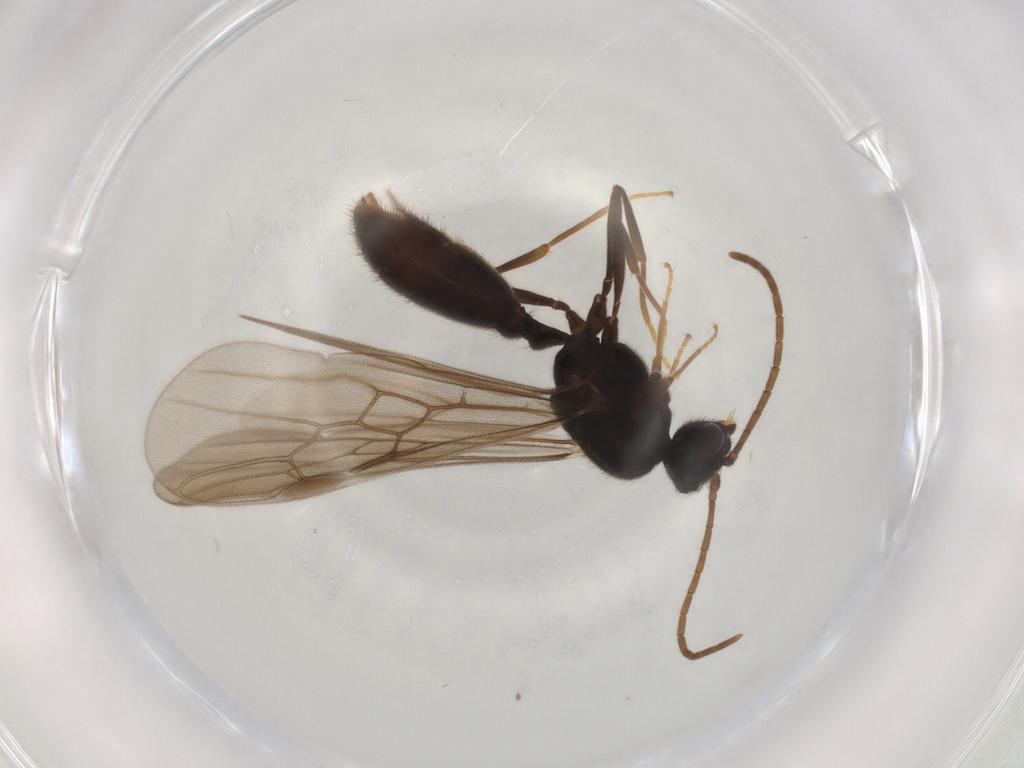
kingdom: Animalia
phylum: Arthropoda
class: Insecta
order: Hymenoptera
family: Formicidae
